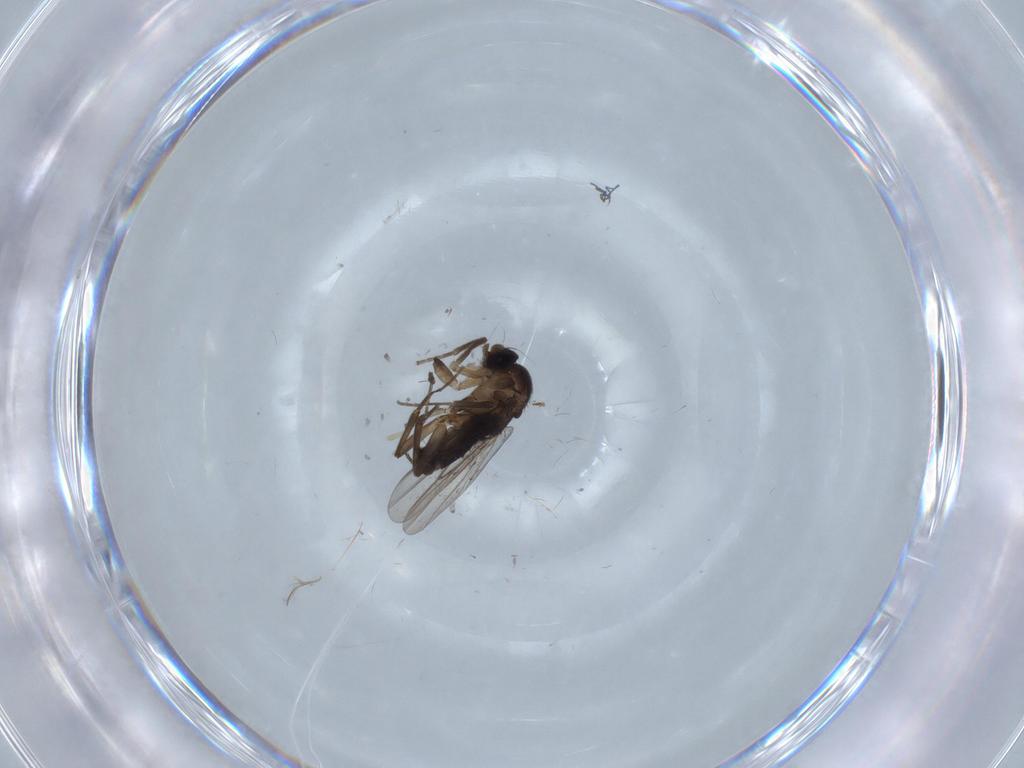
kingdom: Animalia
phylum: Arthropoda
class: Insecta
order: Diptera
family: Phoridae
